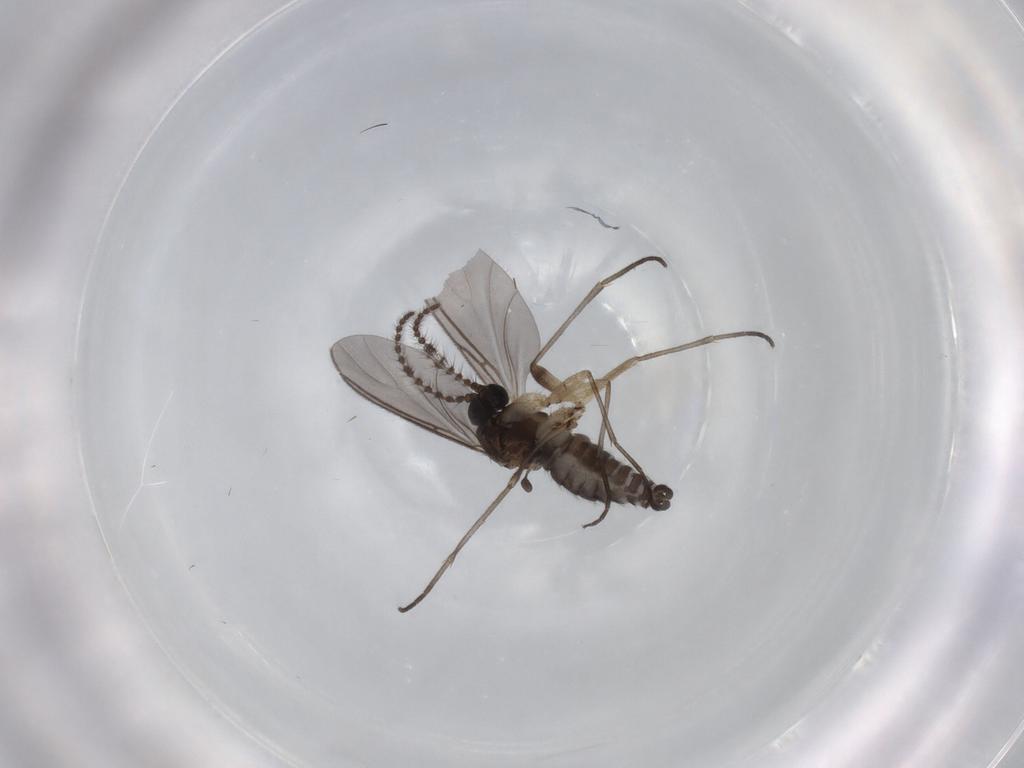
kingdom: Animalia
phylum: Arthropoda
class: Insecta
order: Diptera
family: Sciaridae
